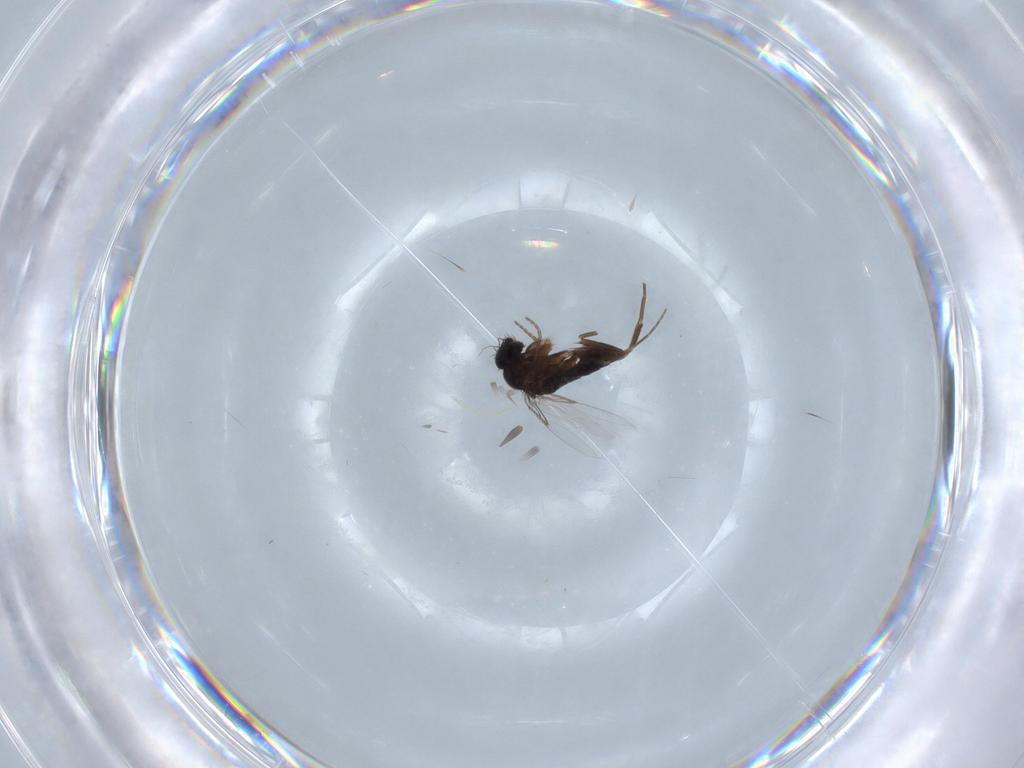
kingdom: Animalia
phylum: Arthropoda
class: Insecta
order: Diptera
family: Phoridae
